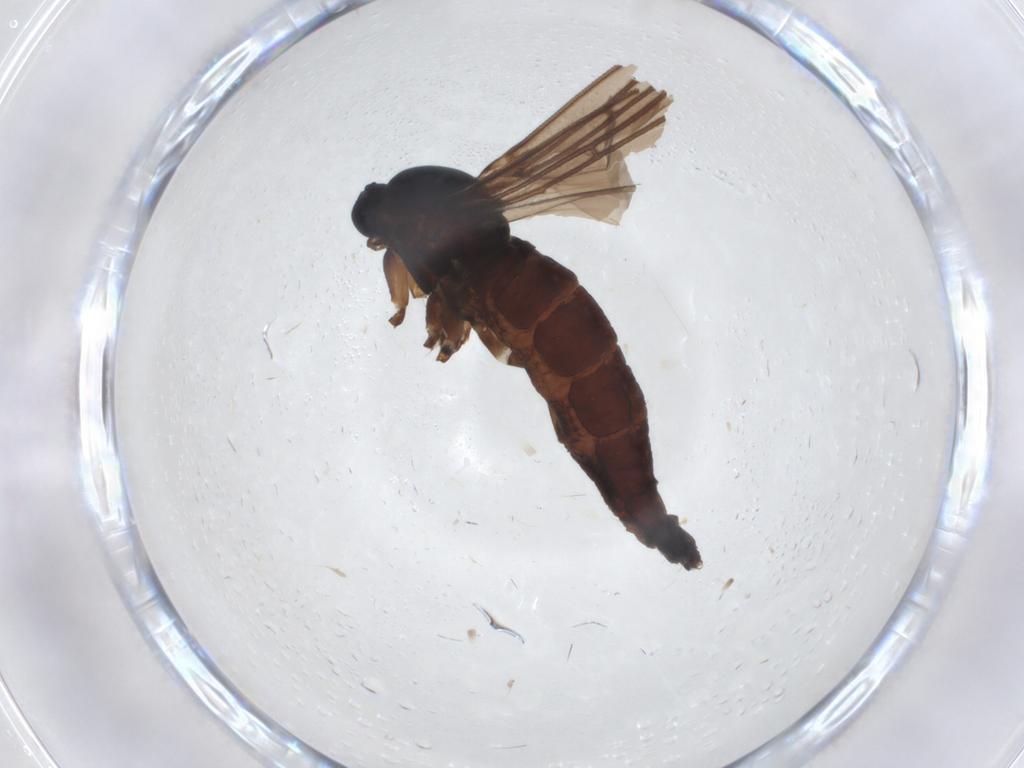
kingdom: Animalia
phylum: Arthropoda
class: Insecta
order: Diptera
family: Sciaridae
